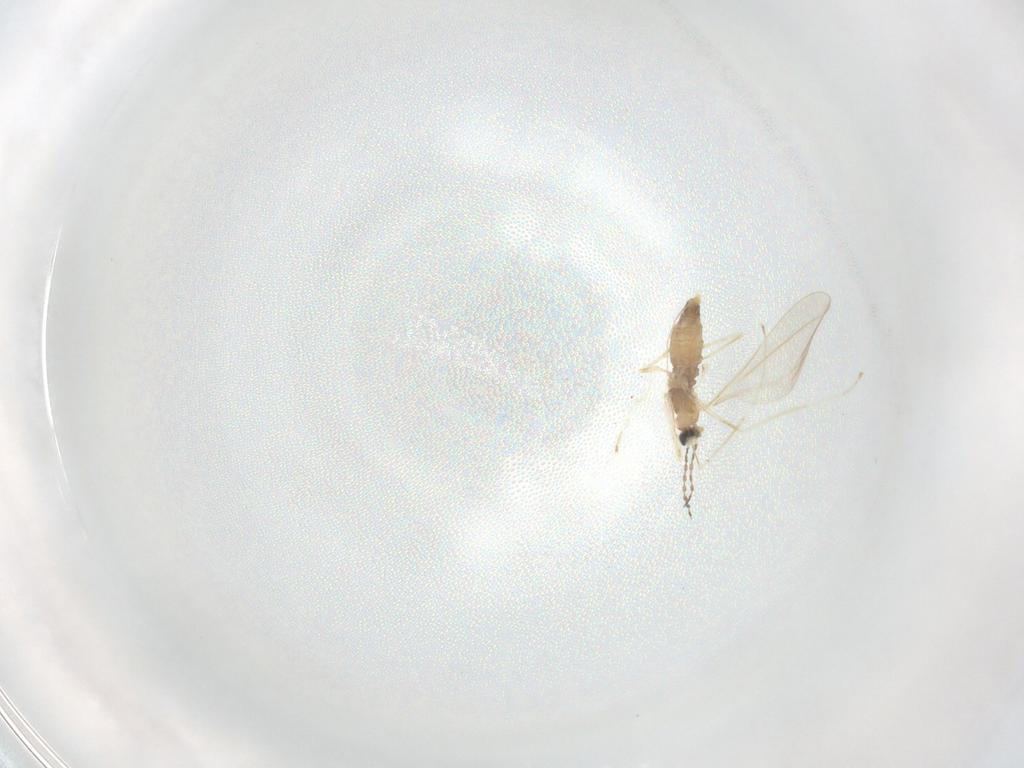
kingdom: Animalia
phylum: Arthropoda
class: Insecta
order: Diptera
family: Cecidomyiidae
